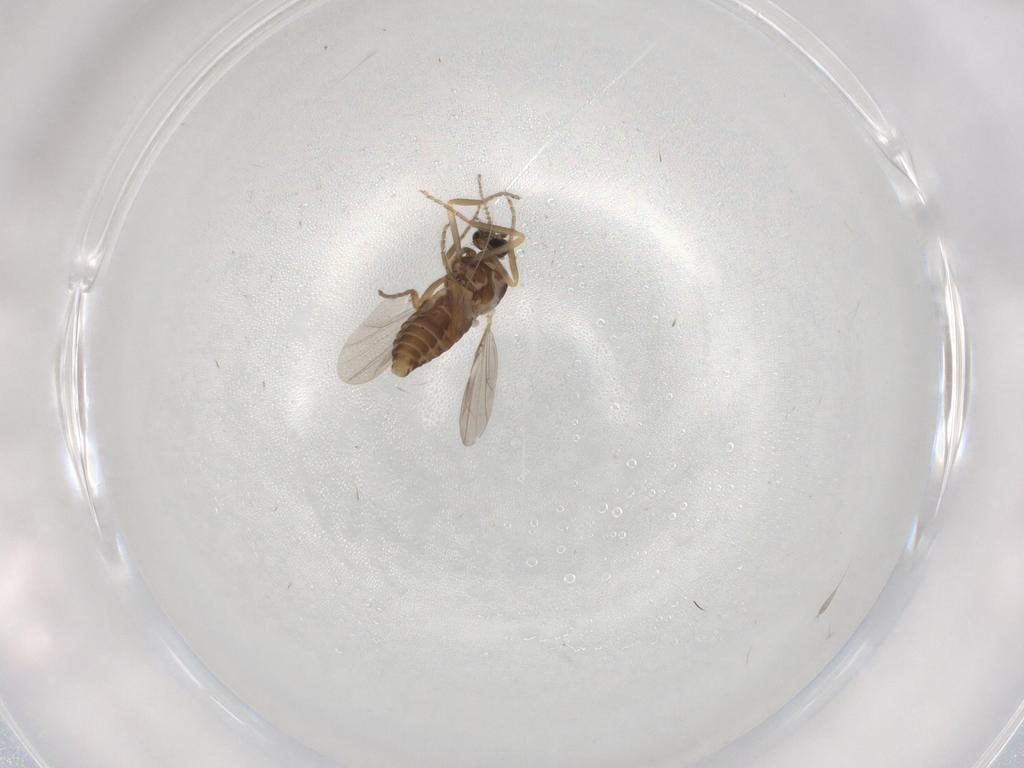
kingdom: Animalia
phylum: Arthropoda
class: Insecta
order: Diptera
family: Ceratopogonidae
